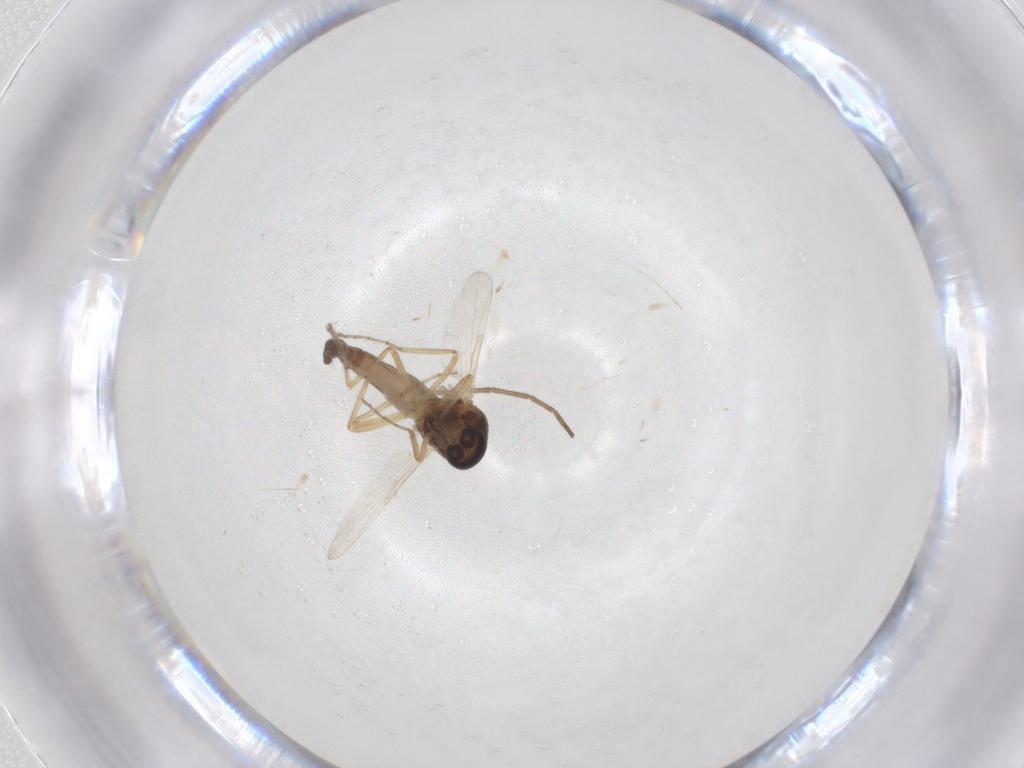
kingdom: Animalia
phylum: Arthropoda
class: Insecta
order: Diptera
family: Ceratopogonidae
